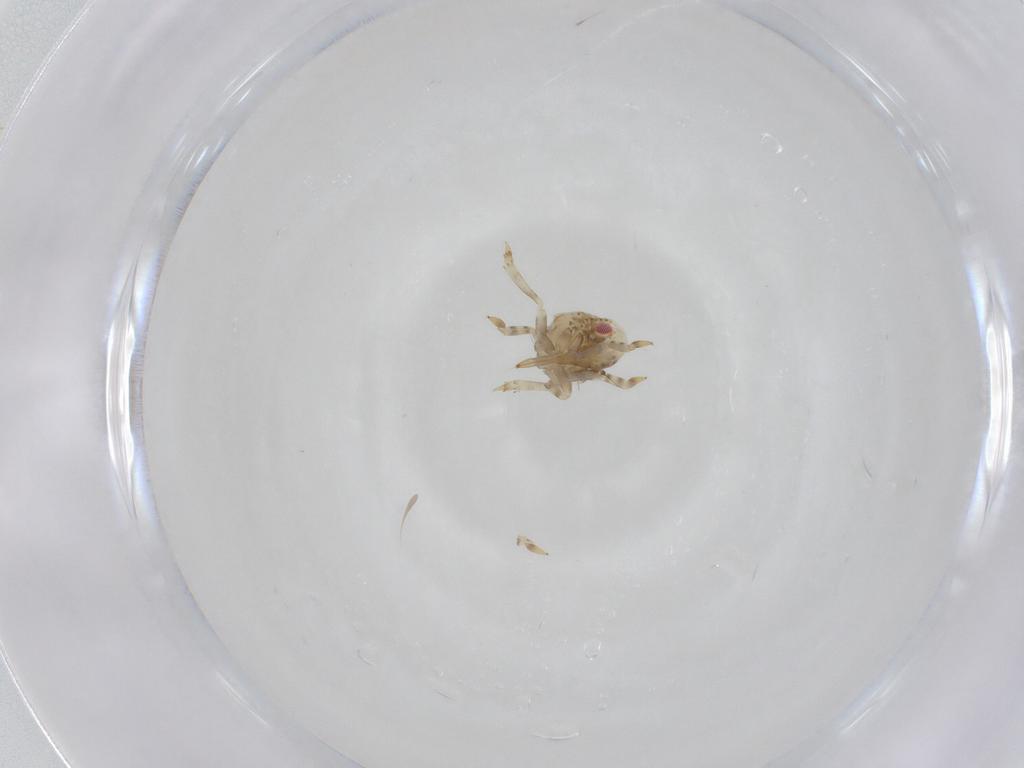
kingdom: Animalia
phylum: Arthropoda
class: Insecta
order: Hemiptera
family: Acanaloniidae
